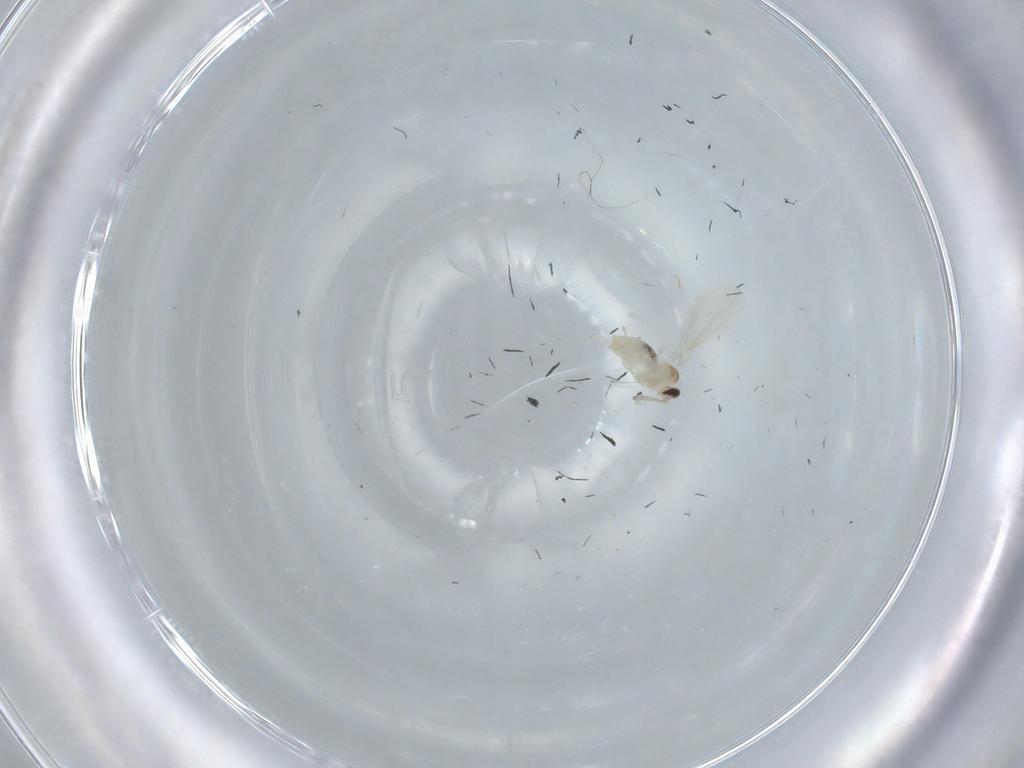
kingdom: Animalia
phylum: Arthropoda
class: Insecta
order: Diptera
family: Cecidomyiidae
